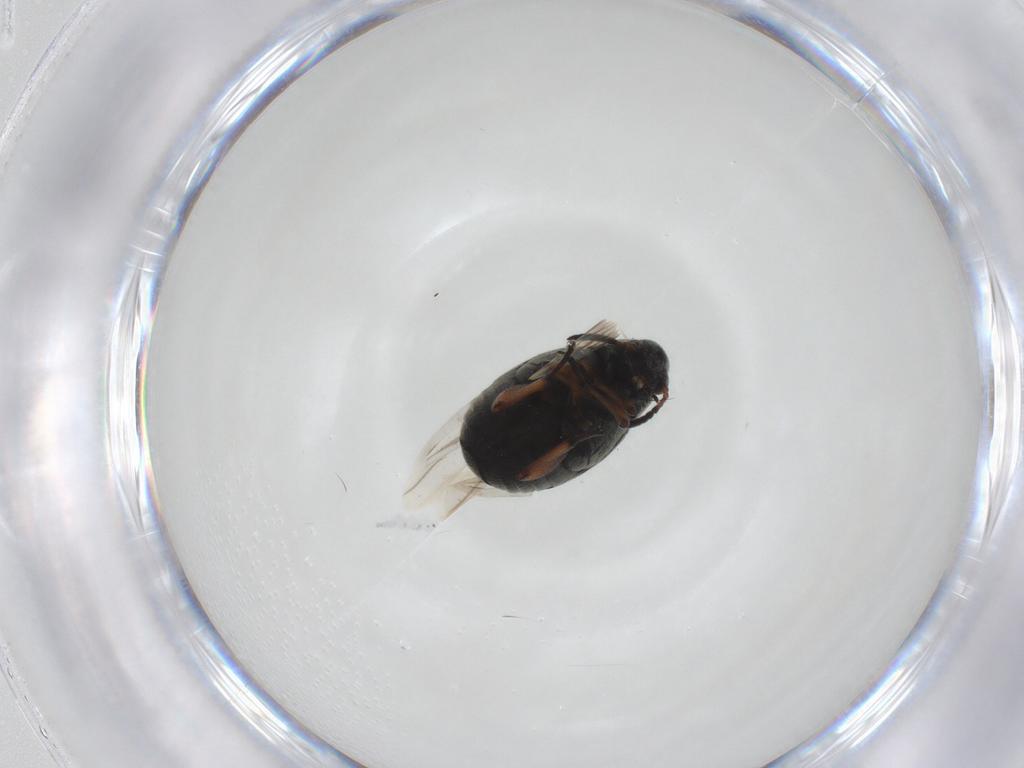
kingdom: Animalia
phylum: Arthropoda
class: Insecta
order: Coleoptera
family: Chrysomelidae
